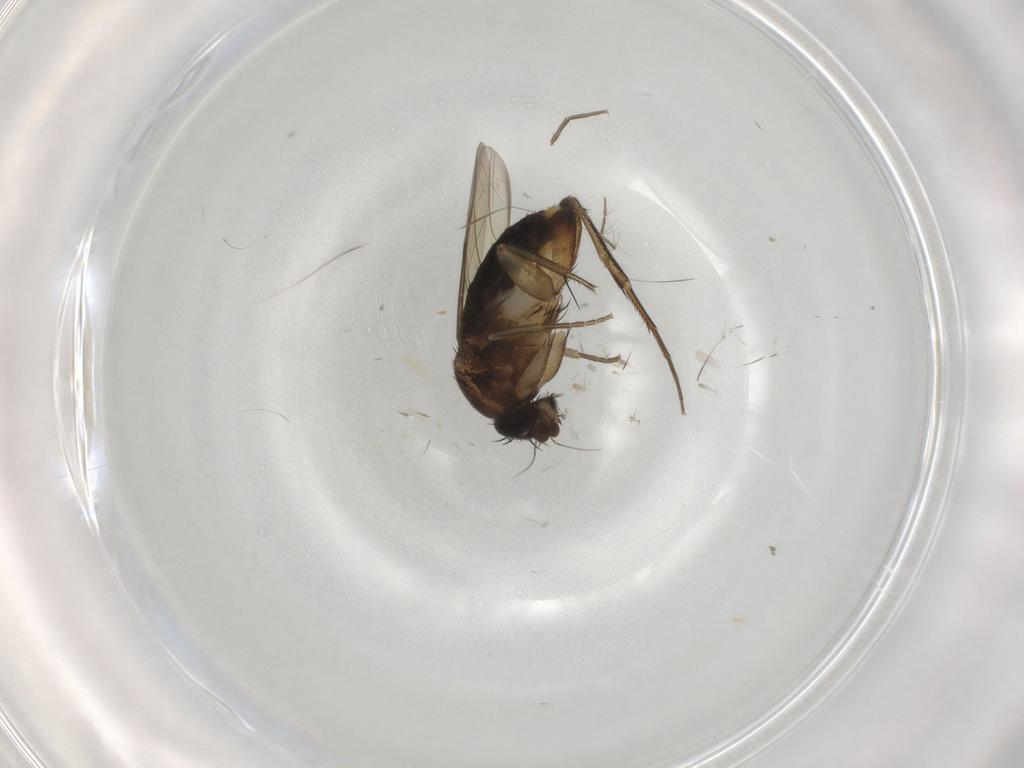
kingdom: Animalia
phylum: Arthropoda
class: Insecta
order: Diptera
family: Phoridae
